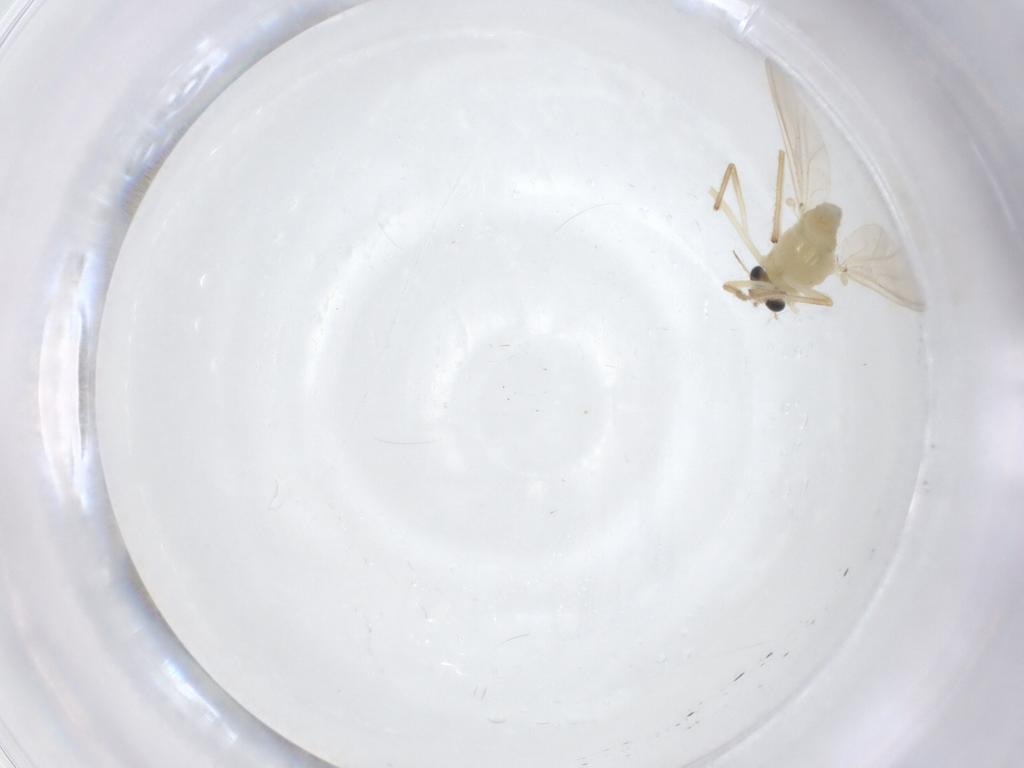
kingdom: Animalia
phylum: Arthropoda
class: Insecta
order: Diptera
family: Chironomidae
